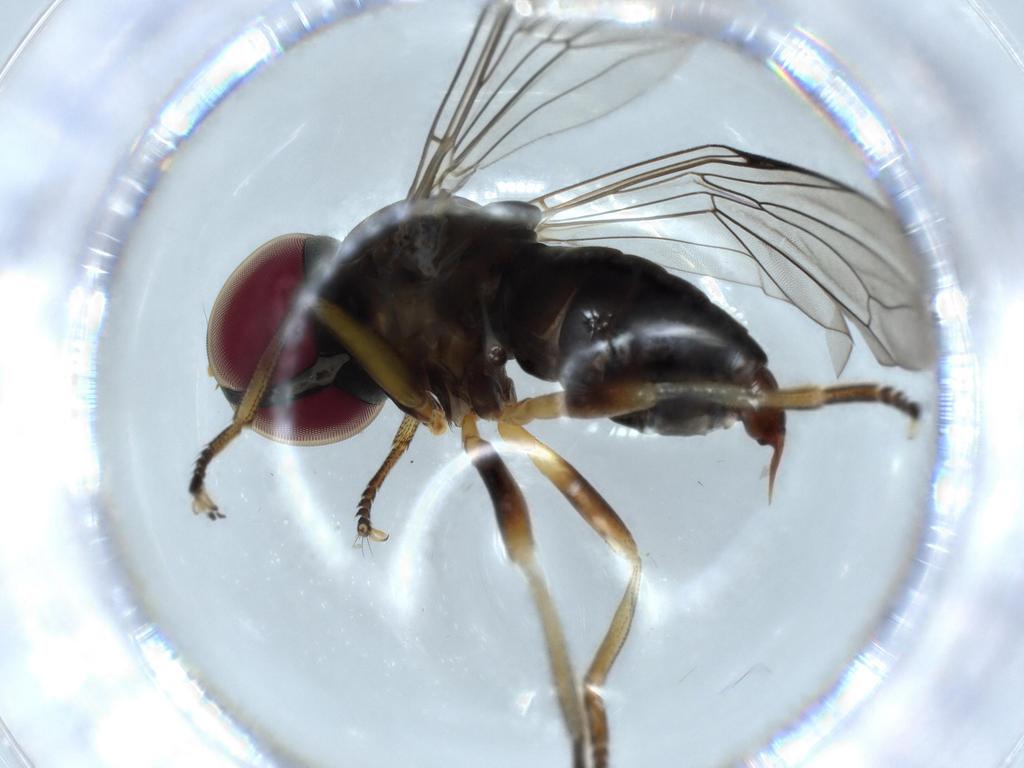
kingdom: Animalia
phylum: Arthropoda
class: Insecta
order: Diptera
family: Pipunculidae
